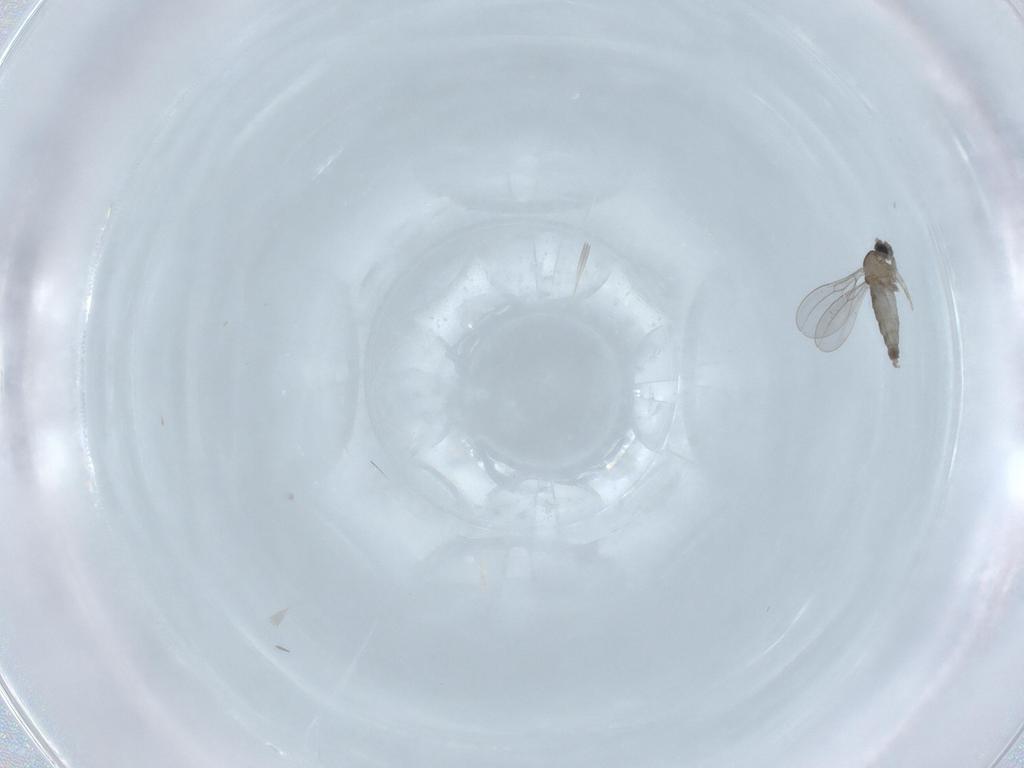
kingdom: Animalia
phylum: Arthropoda
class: Insecta
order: Diptera
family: Cecidomyiidae
